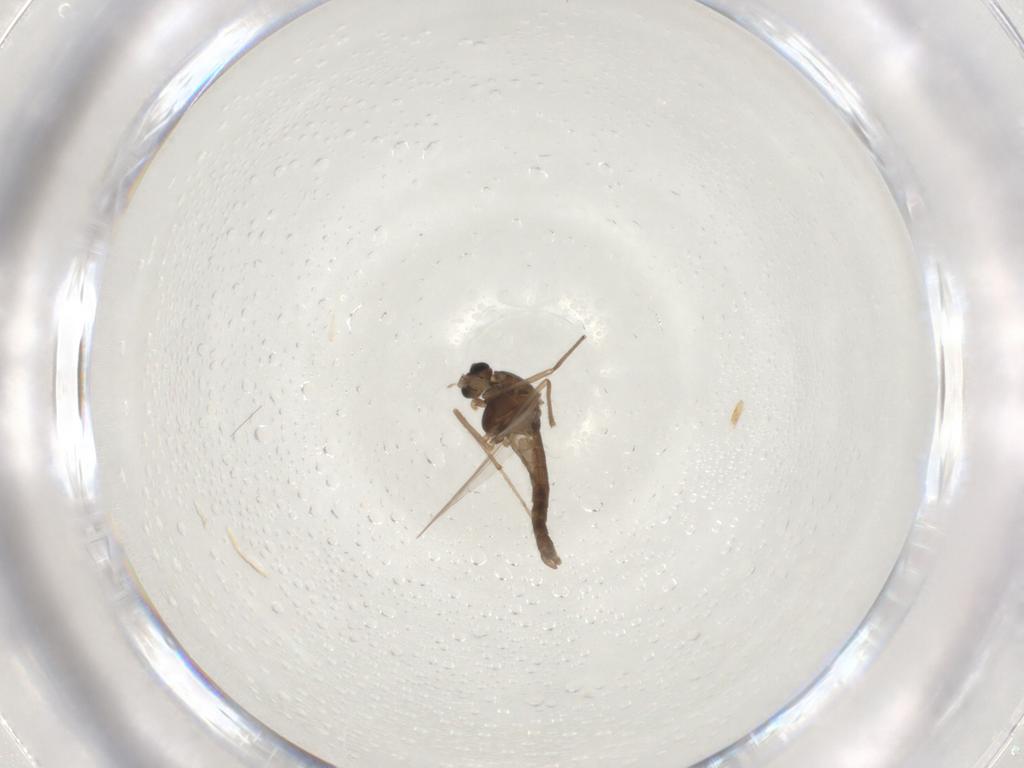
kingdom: Animalia
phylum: Arthropoda
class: Insecta
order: Diptera
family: Chironomidae
